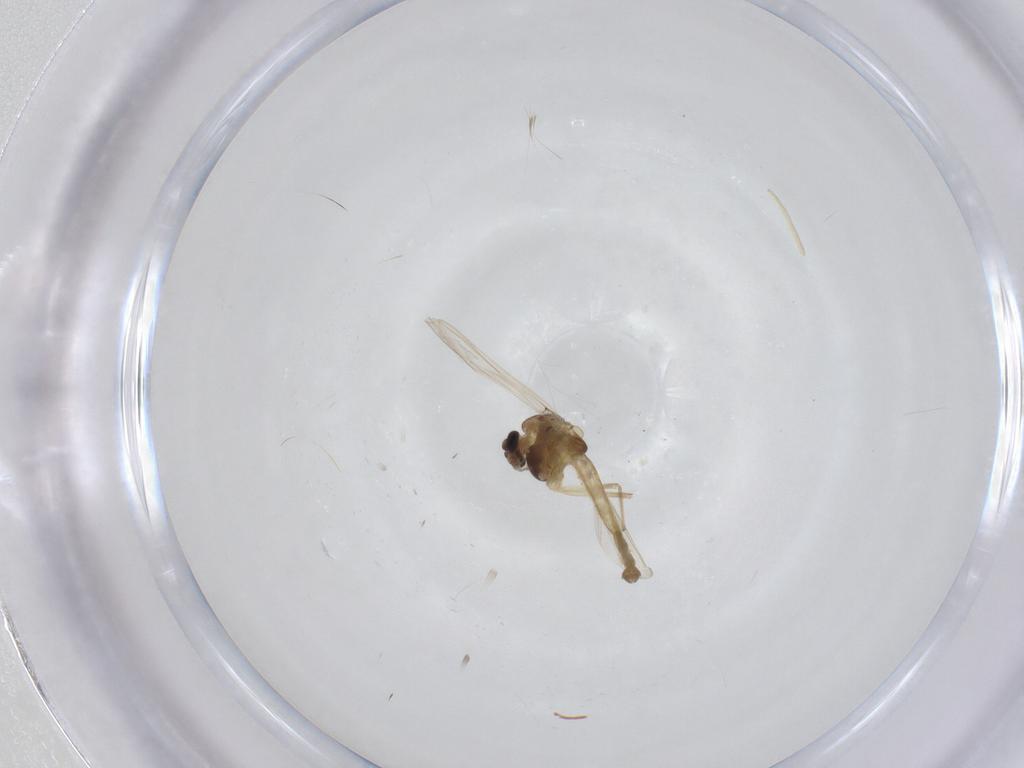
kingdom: Animalia
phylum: Arthropoda
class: Insecta
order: Diptera
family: Chironomidae
